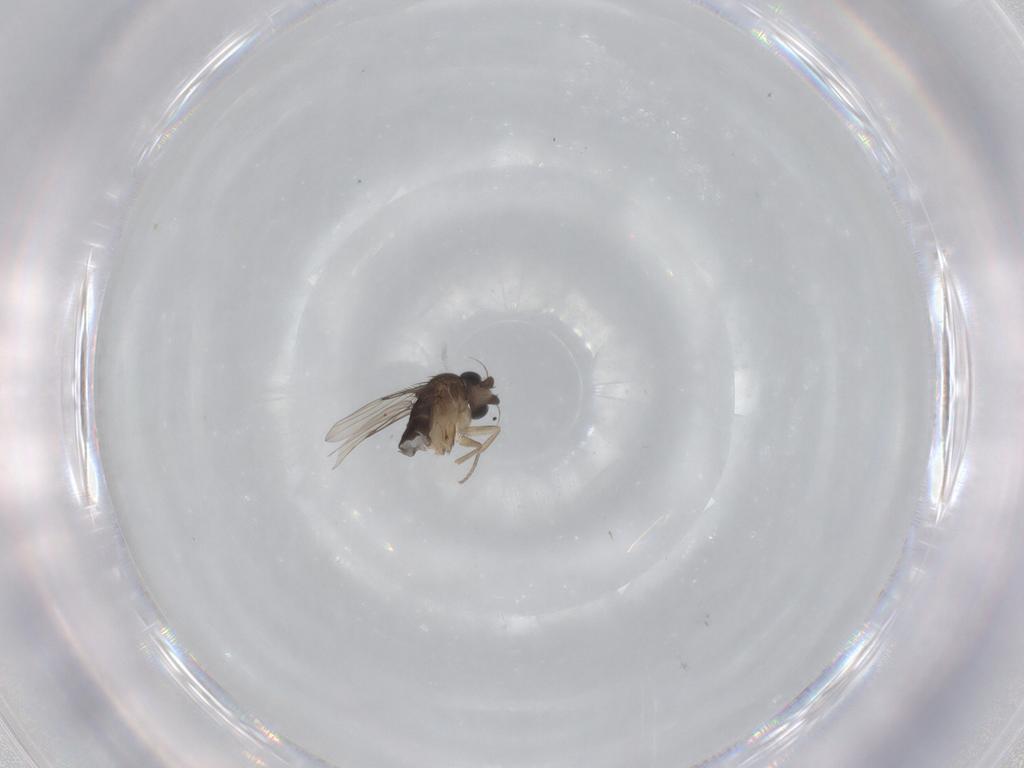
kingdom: Animalia
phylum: Arthropoda
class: Insecta
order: Diptera
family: Phoridae
